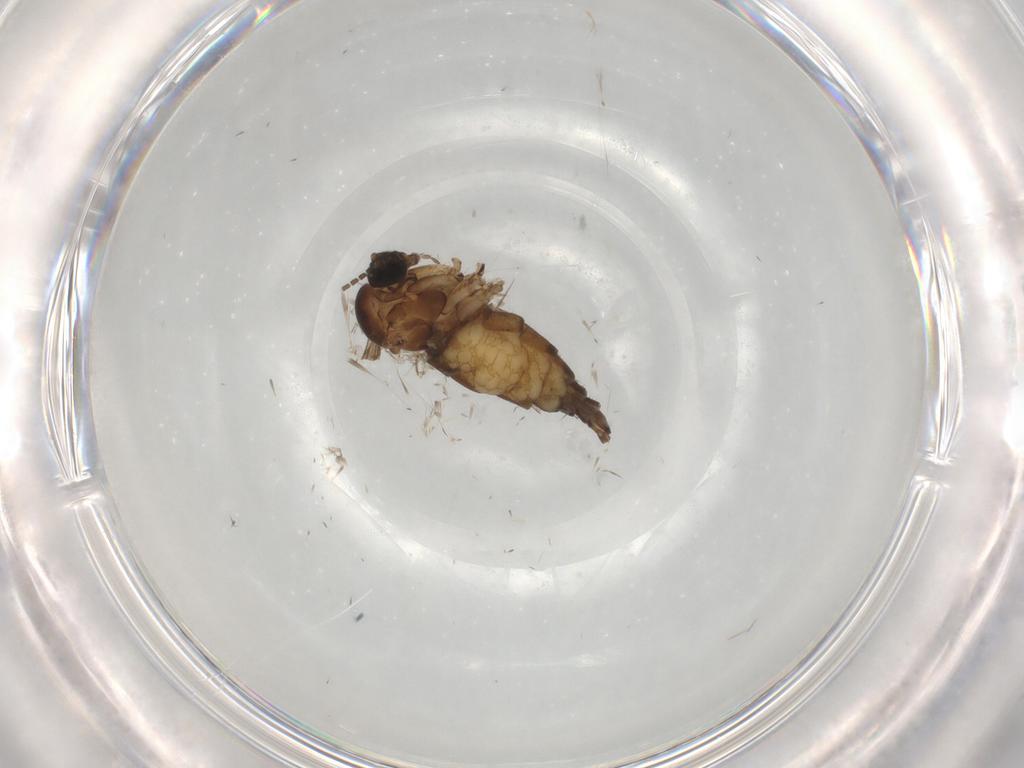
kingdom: Animalia
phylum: Arthropoda
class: Insecta
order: Diptera
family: Sciaridae
